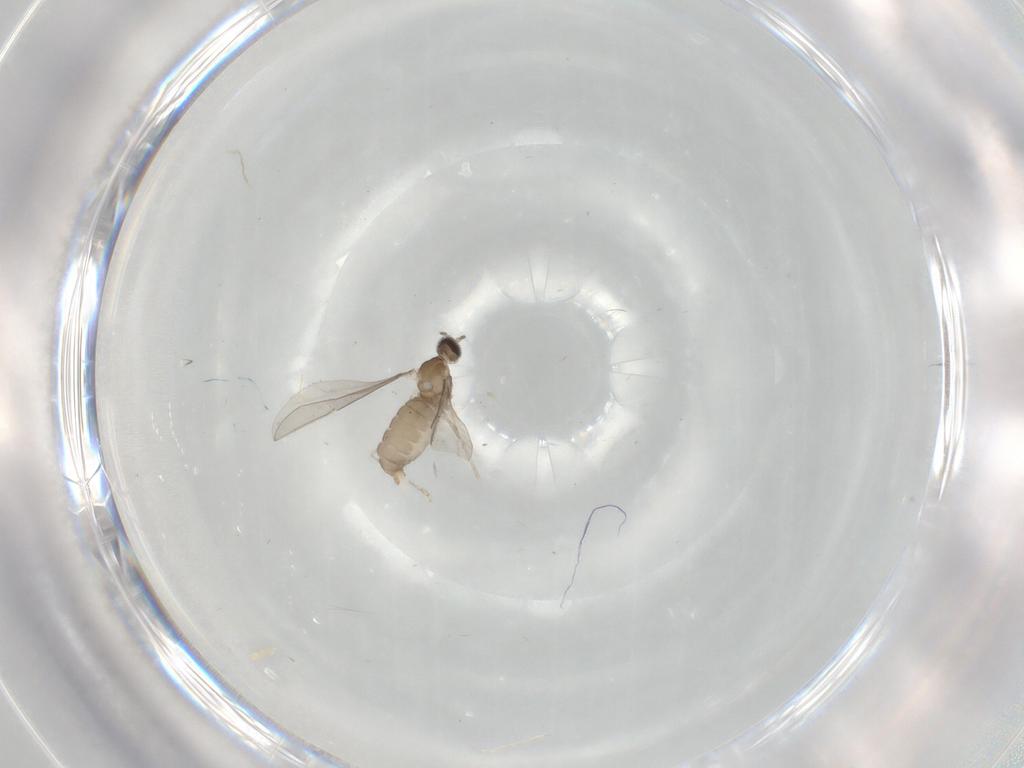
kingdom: Animalia
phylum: Arthropoda
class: Insecta
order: Diptera
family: Cecidomyiidae
